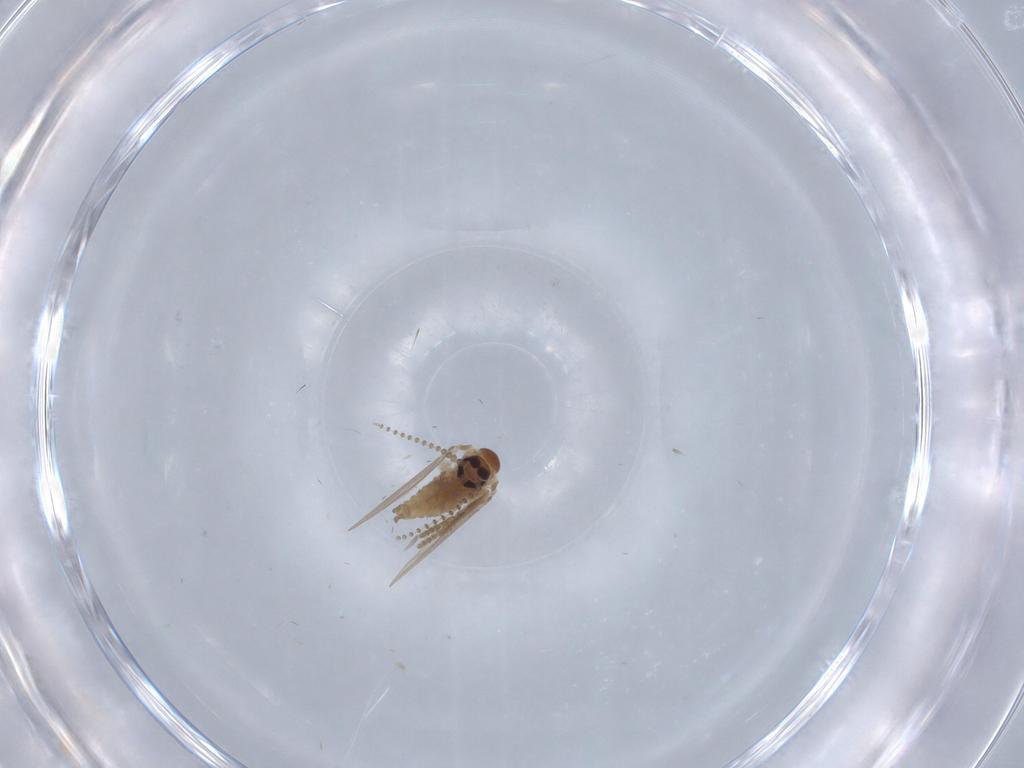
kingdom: Animalia
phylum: Arthropoda
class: Insecta
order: Diptera
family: Psychodidae
